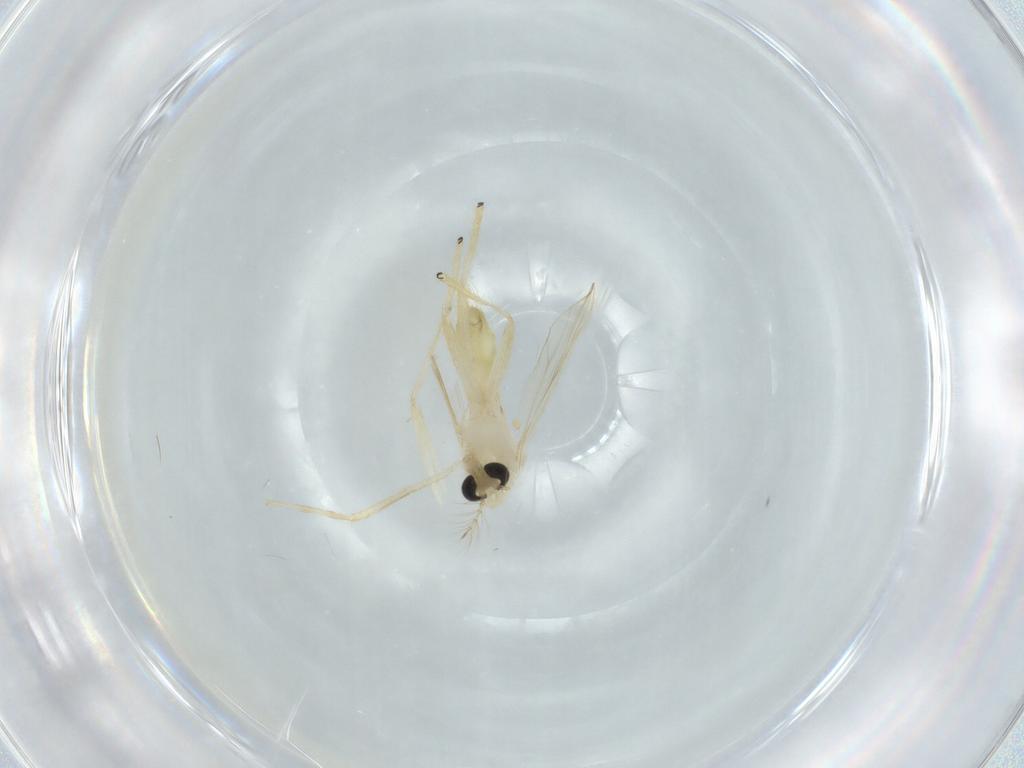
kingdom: Animalia
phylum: Arthropoda
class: Insecta
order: Diptera
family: Chironomidae
